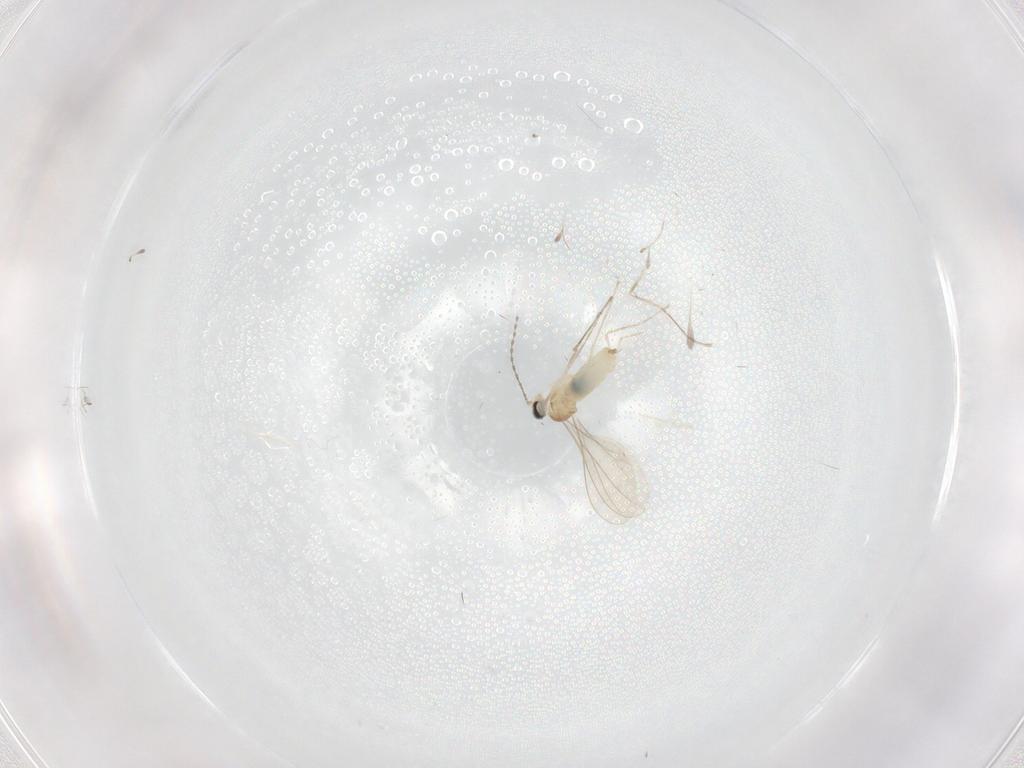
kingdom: Animalia
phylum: Arthropoda
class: Insecta
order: Diptera
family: Cecidomyiidae
